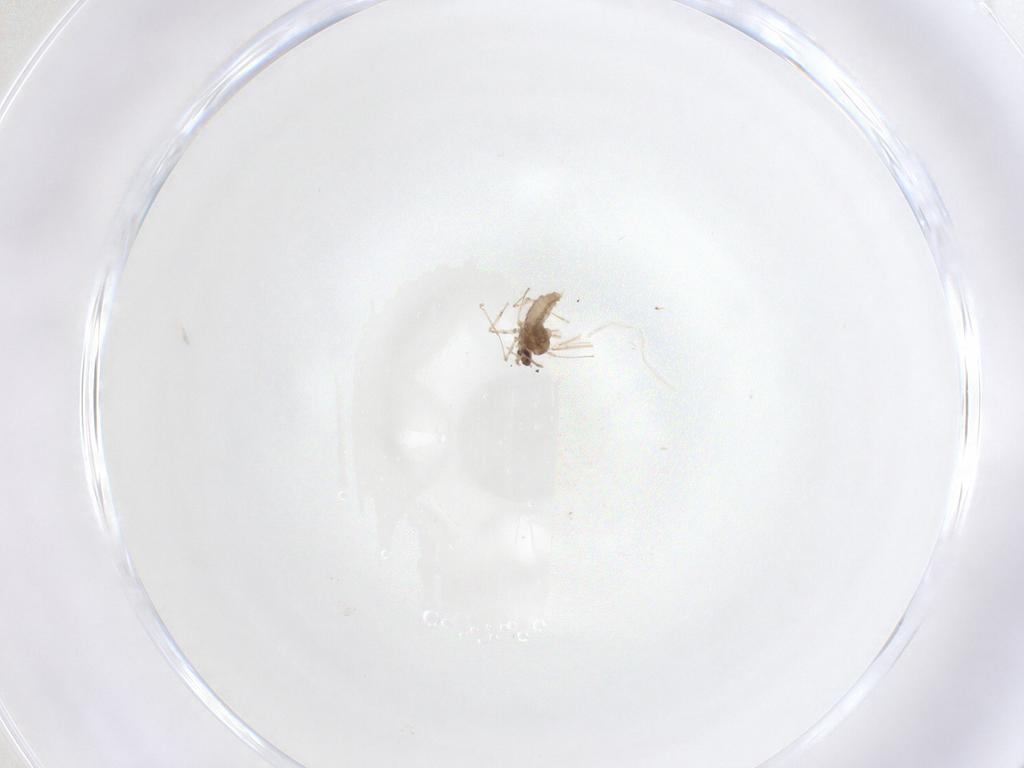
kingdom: Animalia
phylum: Arthropoda
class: Insecta
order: Diptera
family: Cecidomyiidae
